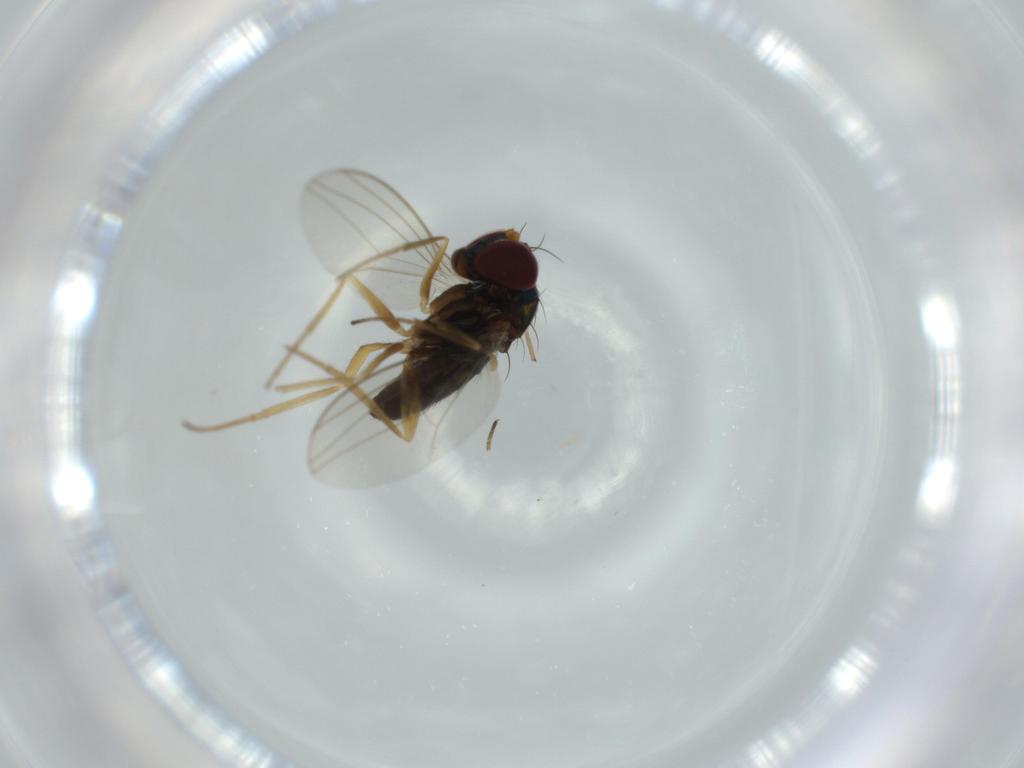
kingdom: Animalia
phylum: Arthropoda
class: Insecta
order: Diptera
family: Dolichopodidae
